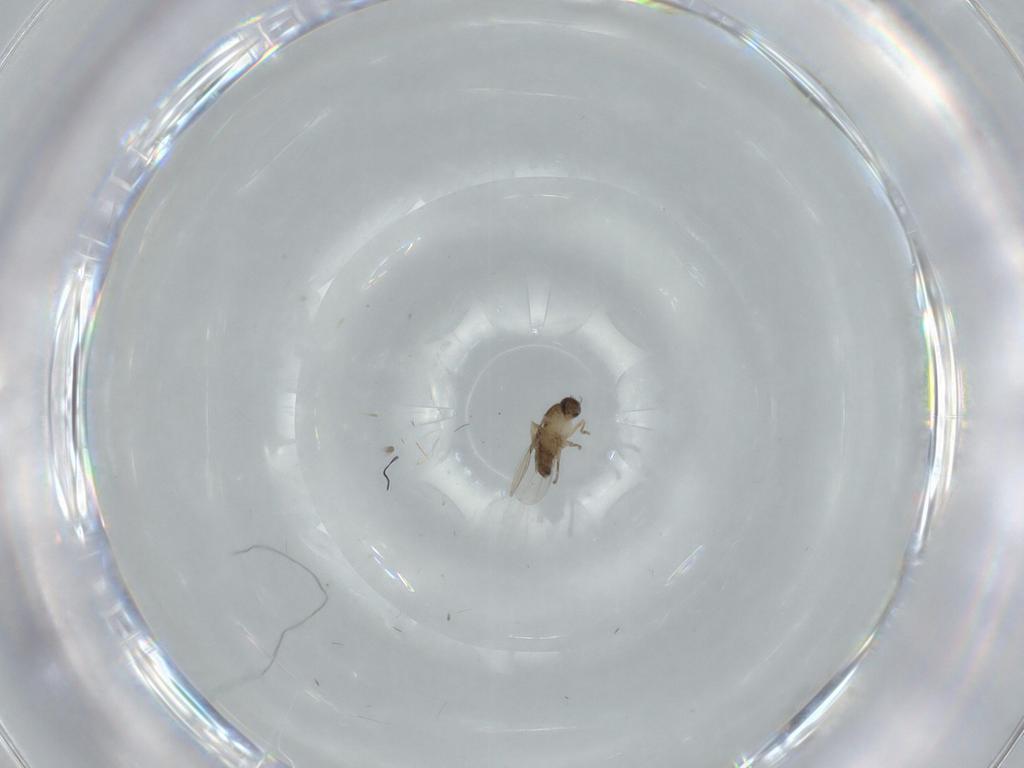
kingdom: Animalia
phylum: Arthropoda
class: Insecta
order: Diptera
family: Phoridae
